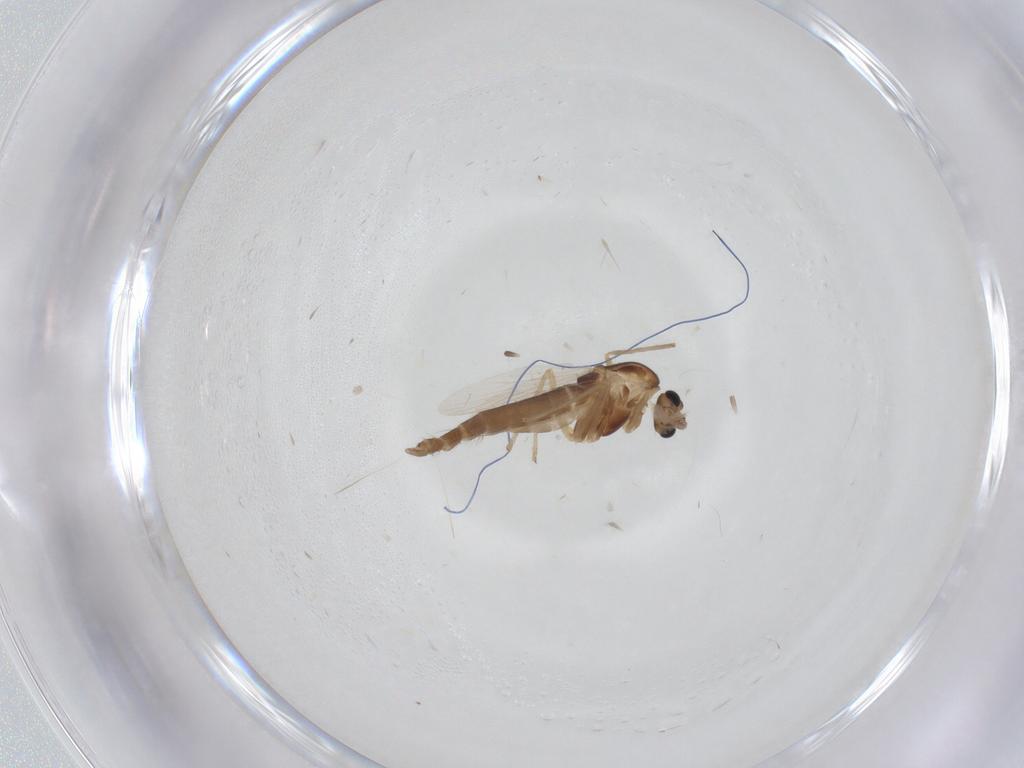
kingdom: Animalia
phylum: Arthropoda
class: Insecta
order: Diptera
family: Chironomidae
